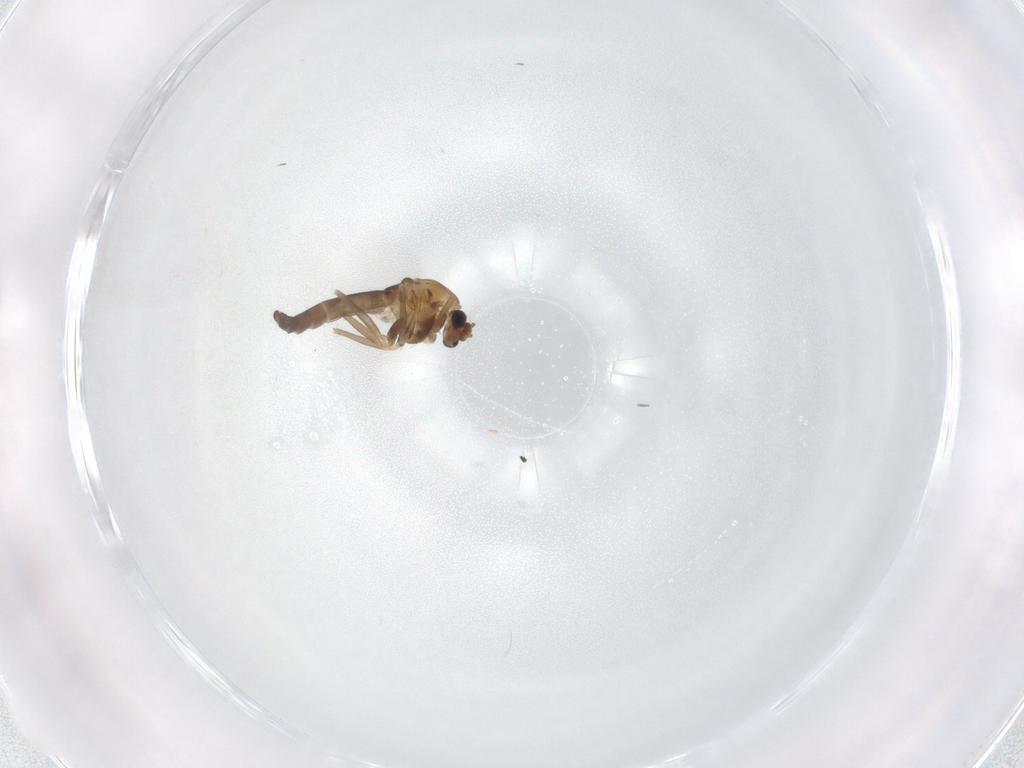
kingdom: Animalia
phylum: Arthropoda
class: Insecta
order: Diptera
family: Chironomidae
